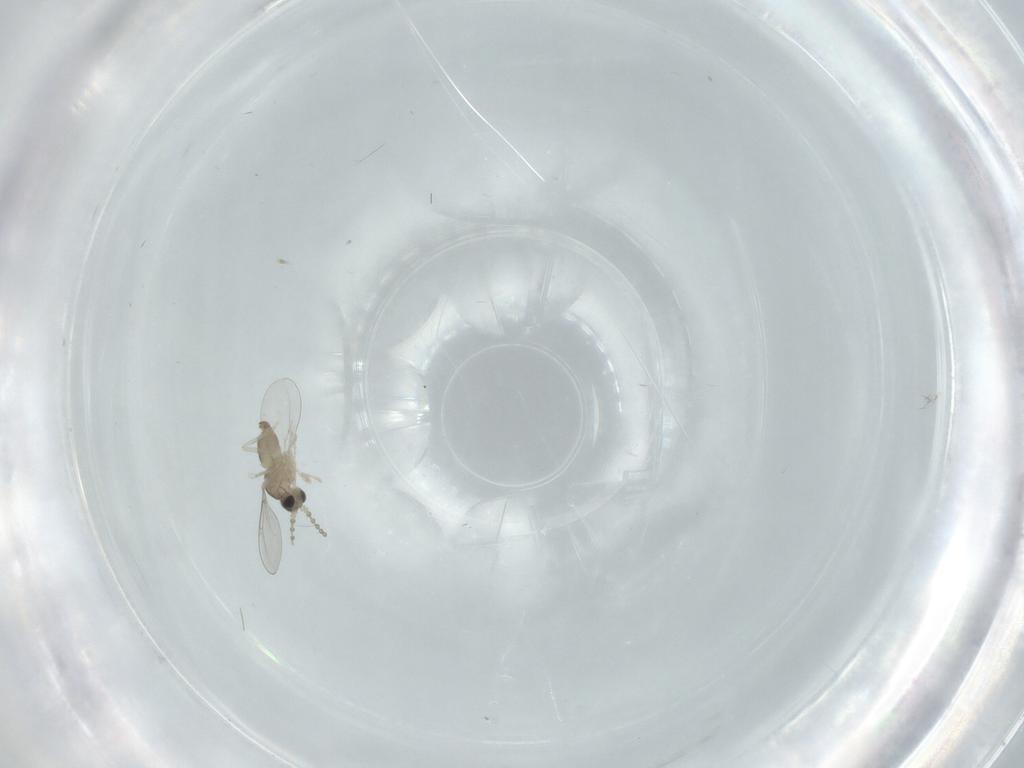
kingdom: Animalia
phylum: Arthropoda
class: Insecta
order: Diptera
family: Cecidomyiidae
